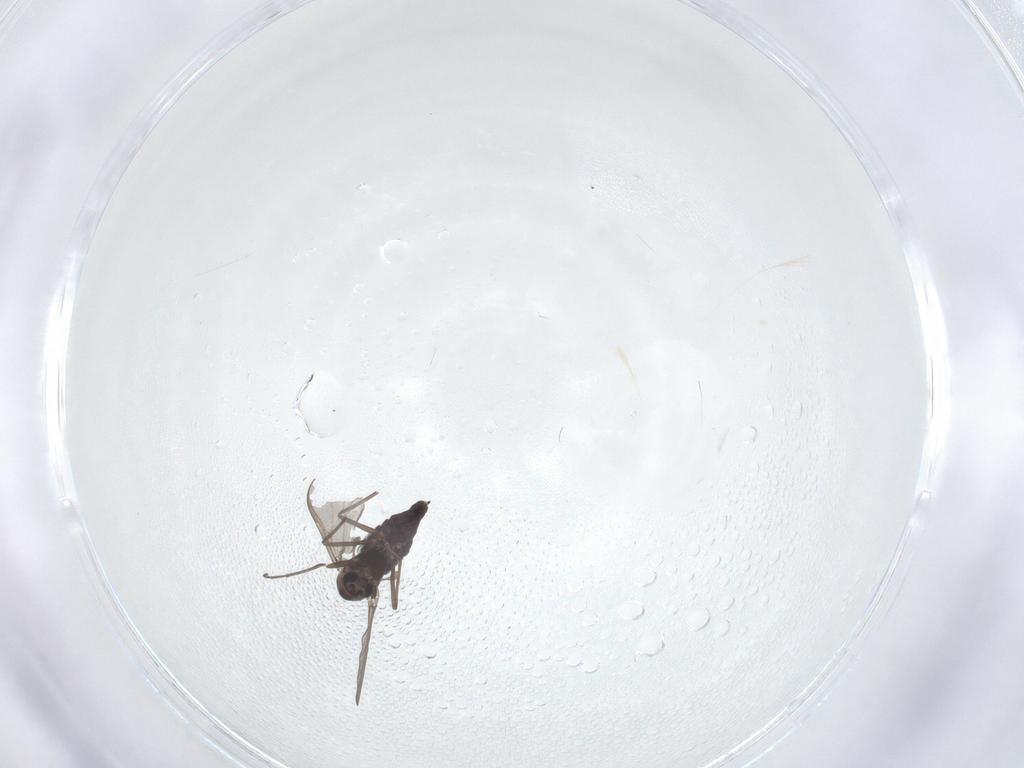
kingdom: Animalia
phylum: Arthropoda
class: Insecta
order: Diptera
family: Chironomidae
